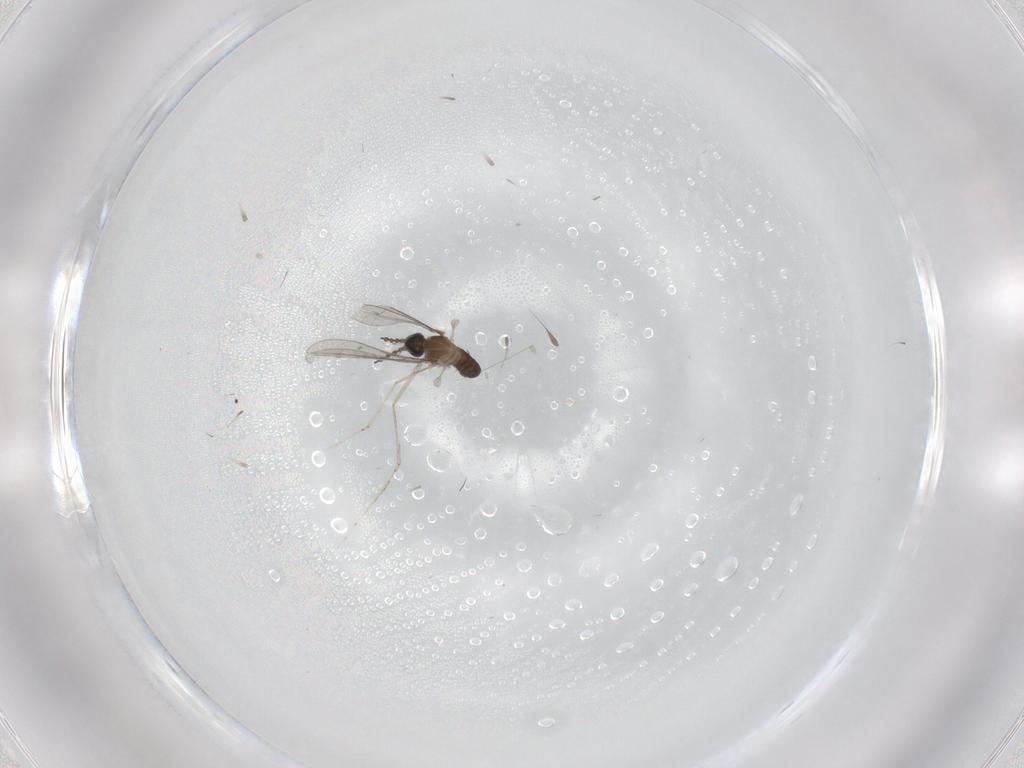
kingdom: Animalia
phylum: Arthropoda
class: Insecta
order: Diptera
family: Cecidomyiidae
